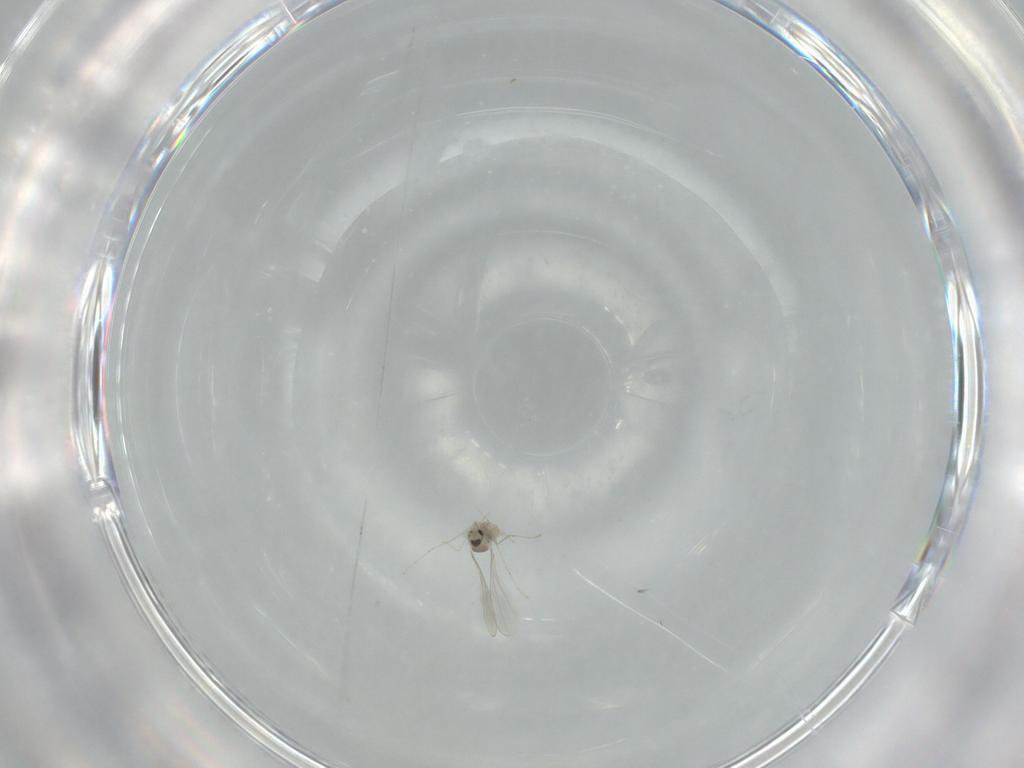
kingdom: Animalia
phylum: Arthropoda
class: Insecta
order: Diptera
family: Cecidomyiidae
